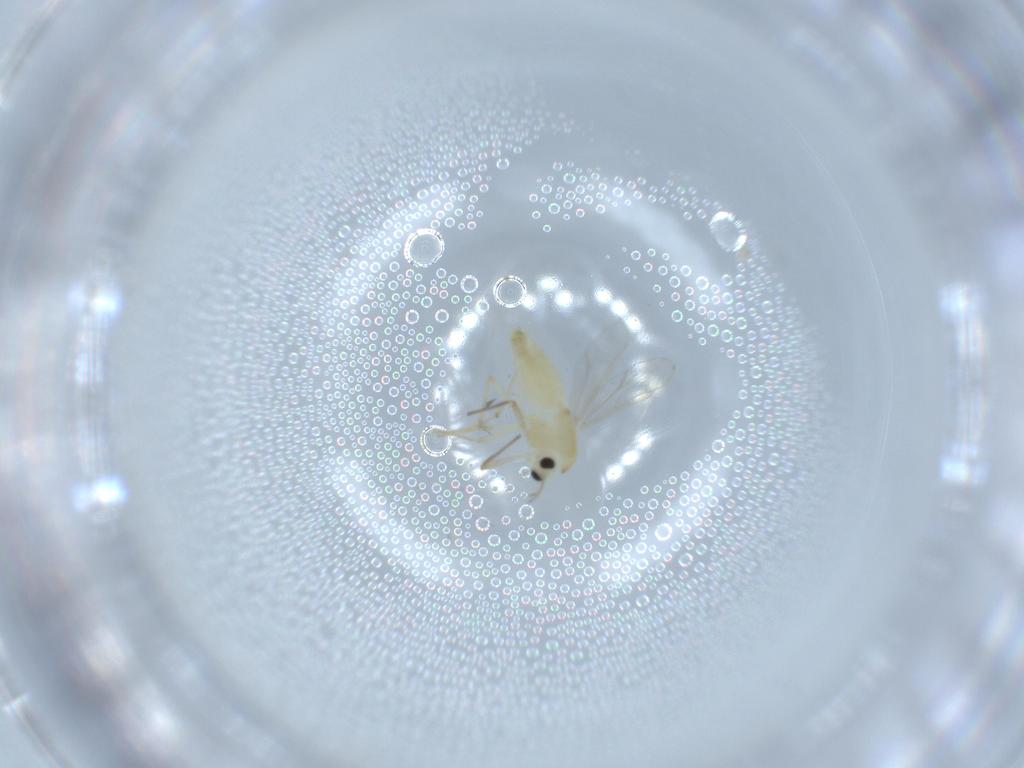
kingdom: Animalia
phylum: Arthropoda
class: Insecta
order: Diptera
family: Chironomidae
